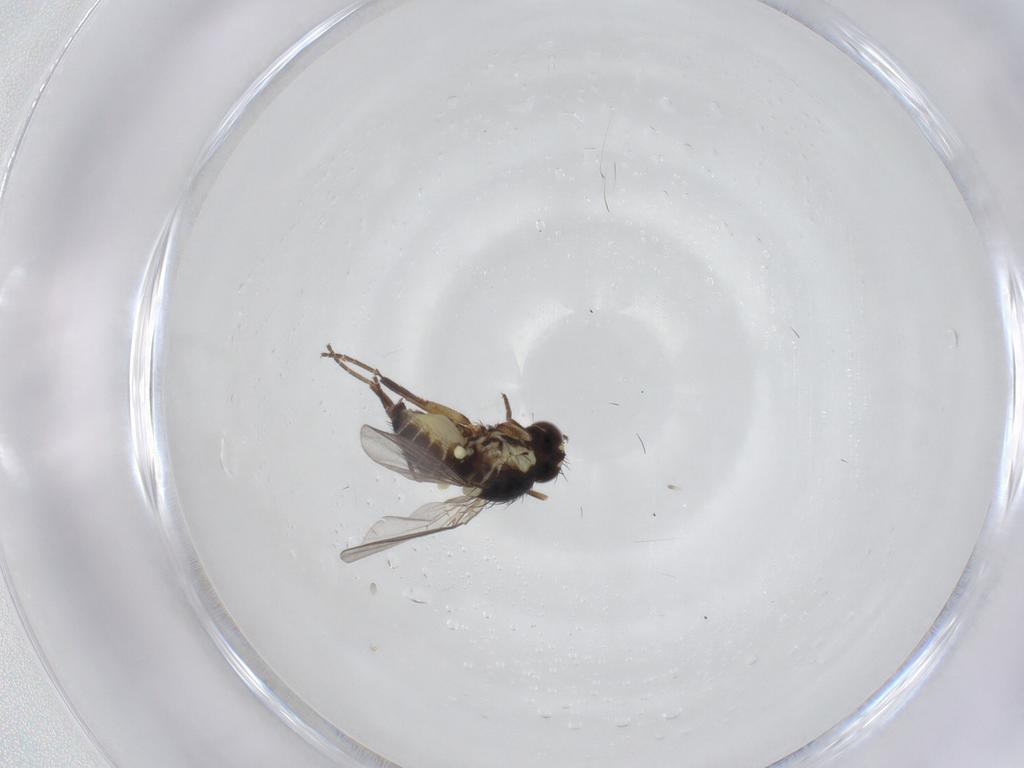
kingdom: Animalia
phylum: Arthropoda
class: Insecta
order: Diptera
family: Agromyzidae
